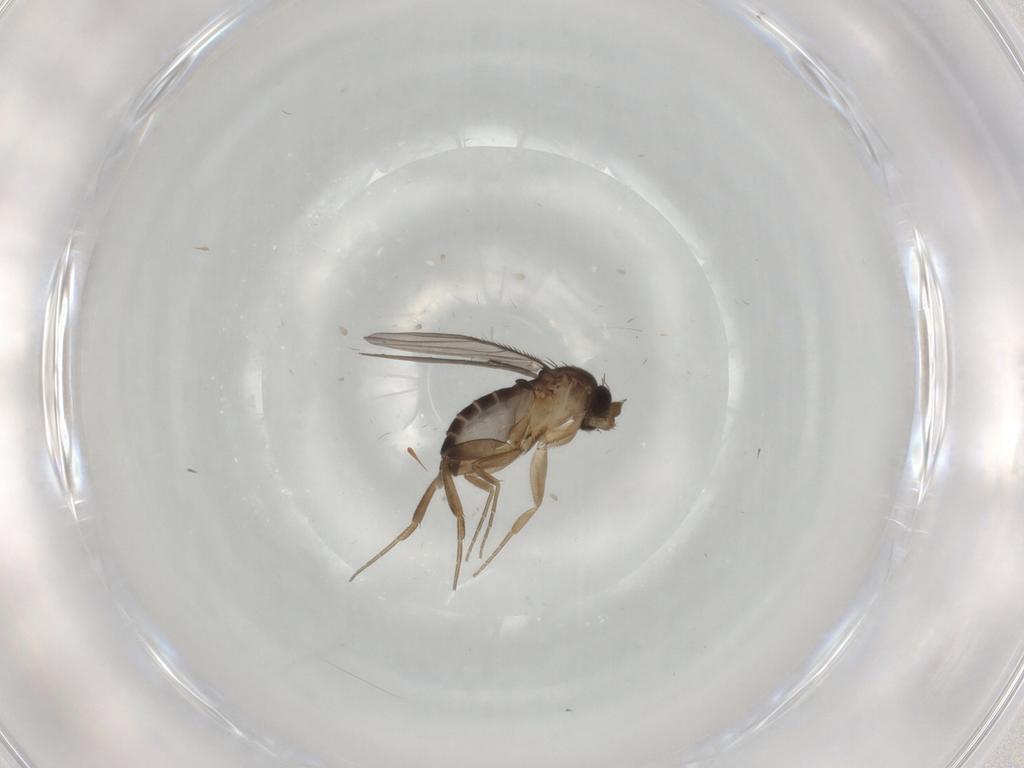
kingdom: Animalia
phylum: Arthropoda
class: Insecta
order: Diptera
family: Phoridae
